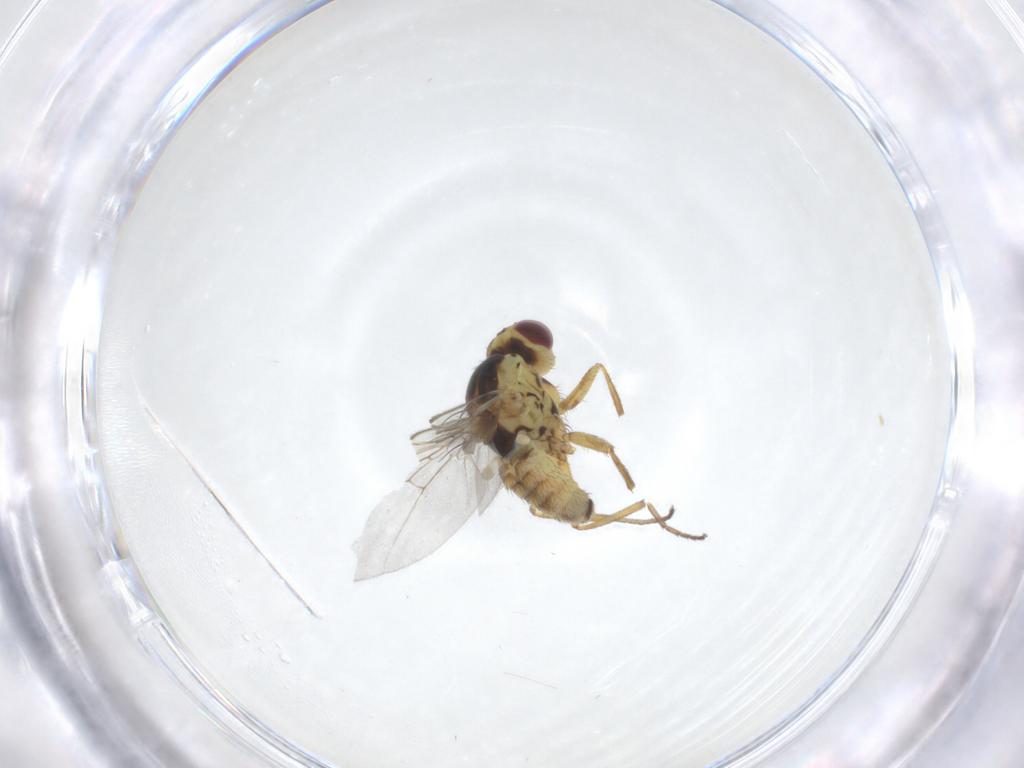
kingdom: Animalia
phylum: Arthropoda
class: Insecta
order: Diptera
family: Agromyzidae
